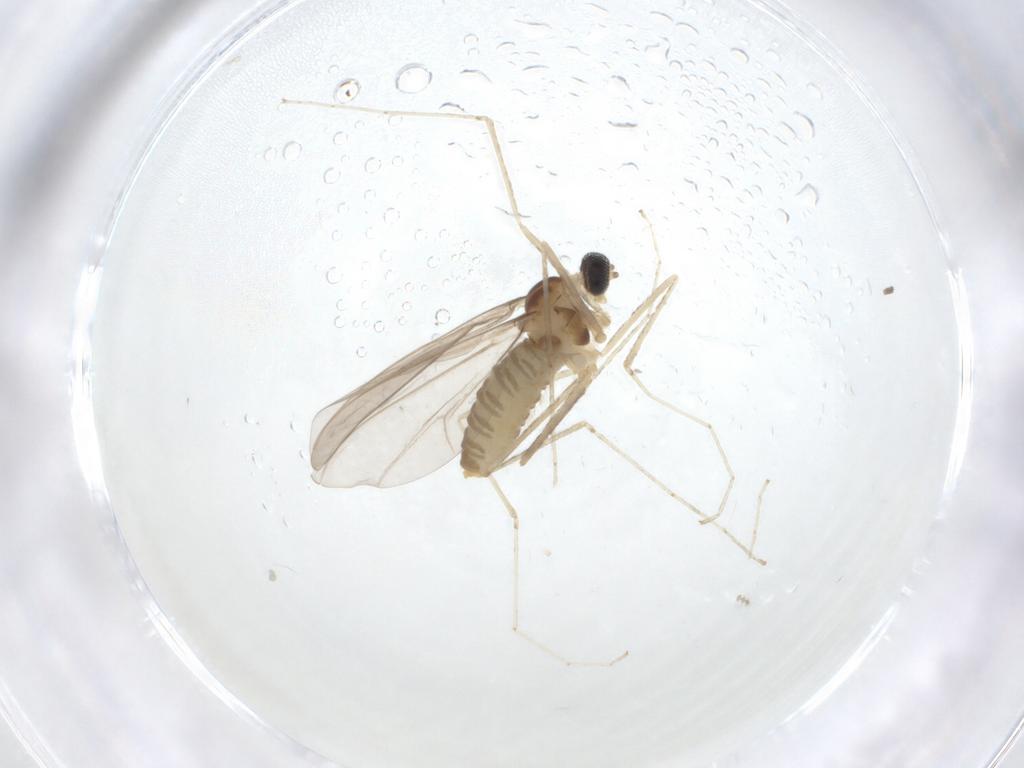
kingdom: Animalia
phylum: Arthropoda
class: Insecta
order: Diptera
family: Cecidomyiidae
